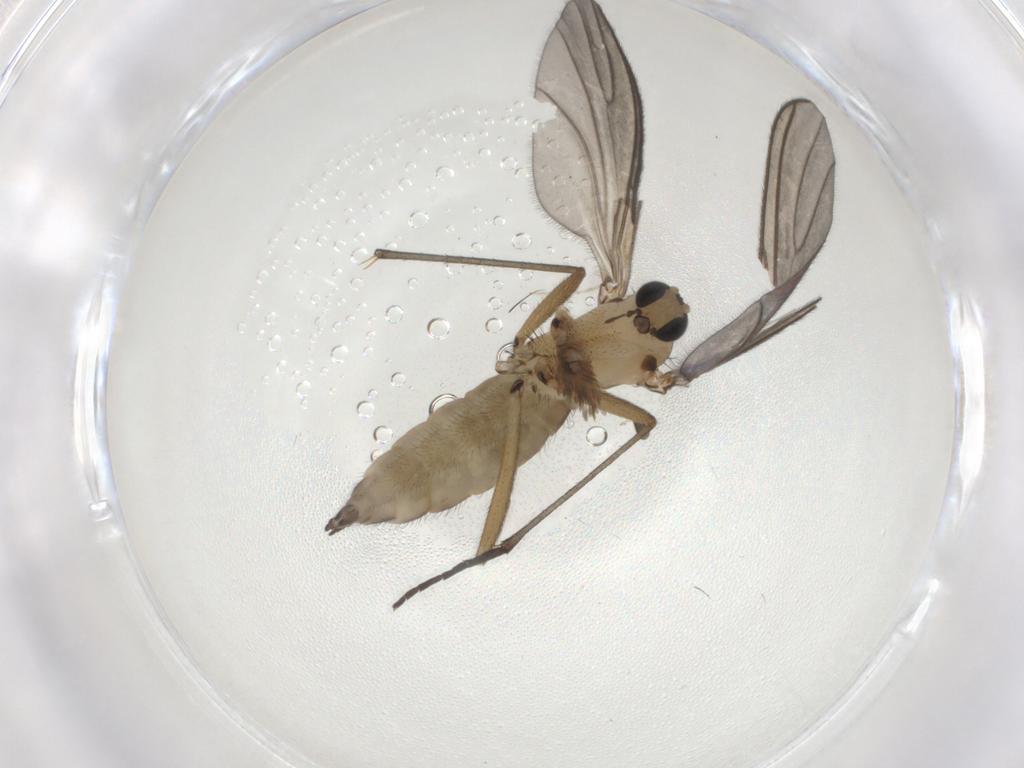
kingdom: Animalia
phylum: Arthropoda
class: Insecta
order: Diptera
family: Sciaridae
